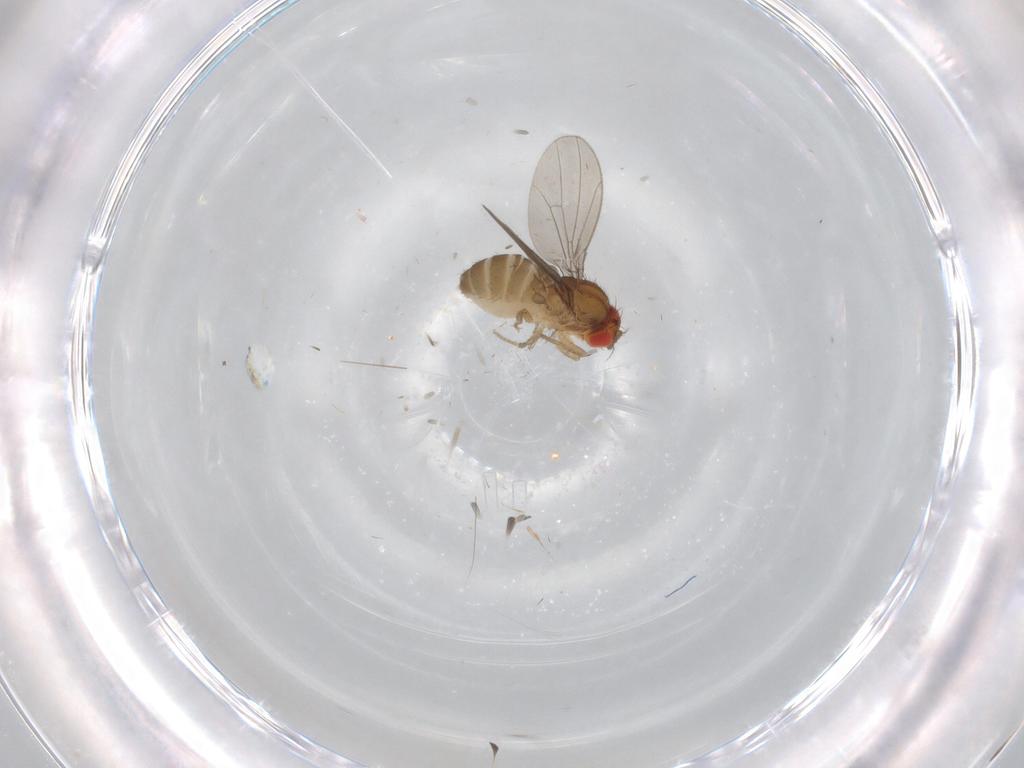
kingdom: Animalia
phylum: Arthropoda
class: Insecta
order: Diptera
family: Drosophilidae
